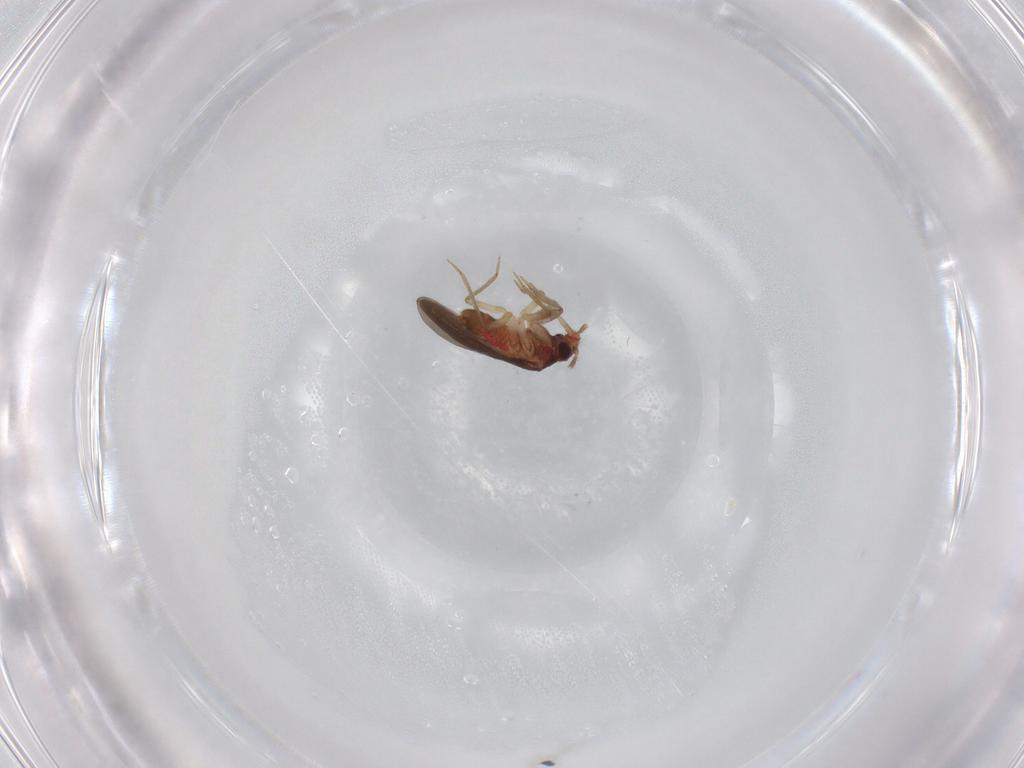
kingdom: Animalia
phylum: Arthropoda
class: Insecta
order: Hemiptera
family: Ceratocombidae
